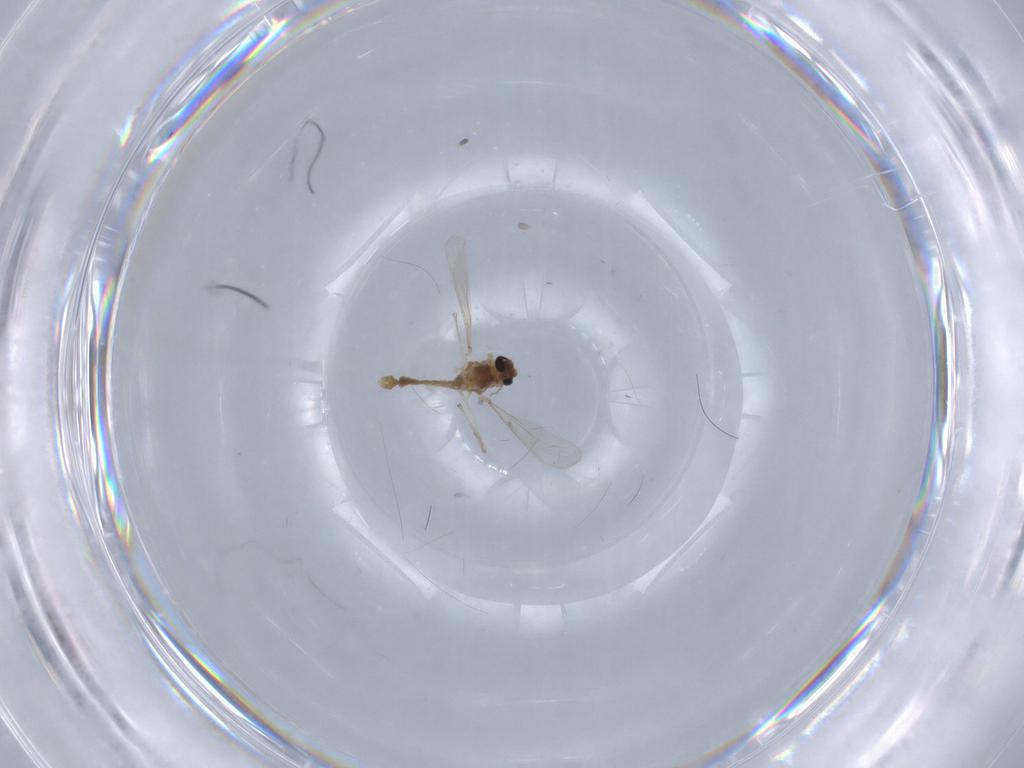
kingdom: Animalia
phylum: Arthropoda
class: Insecta
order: Diptera
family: Chironomidae
